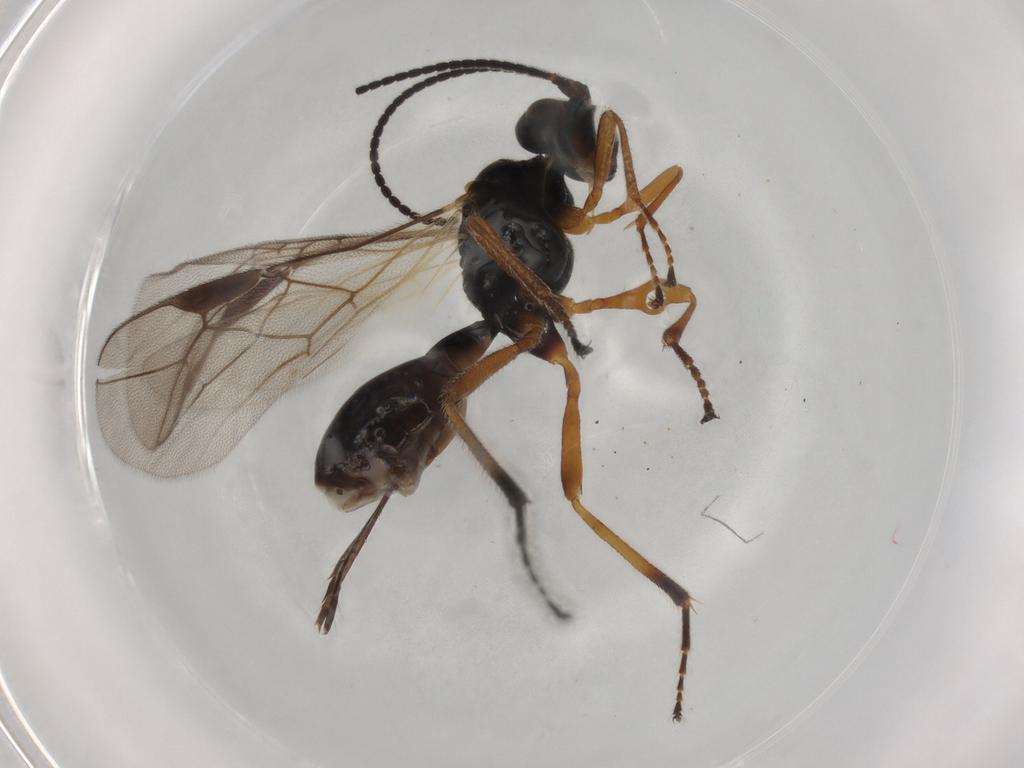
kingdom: Animalia
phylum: Arthropoda
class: Insecta
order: Hymenoptera
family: Braconidae
